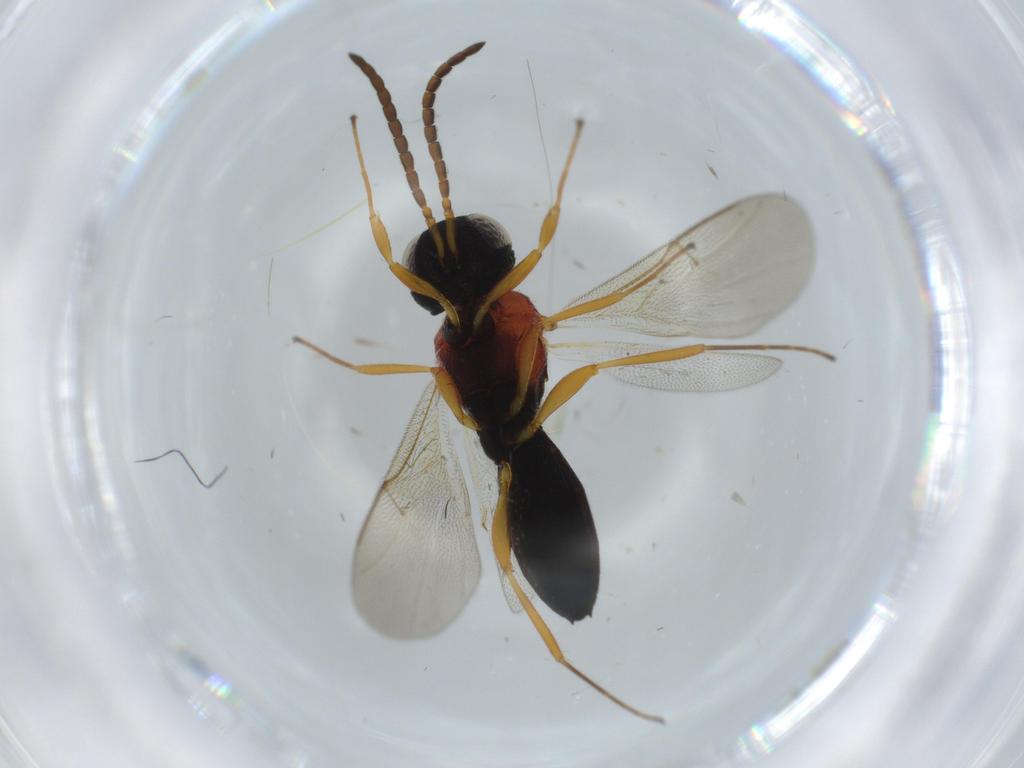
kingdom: Animalia
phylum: Arthropoda
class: Insecta
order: Hymenoptera
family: Scelionidae
